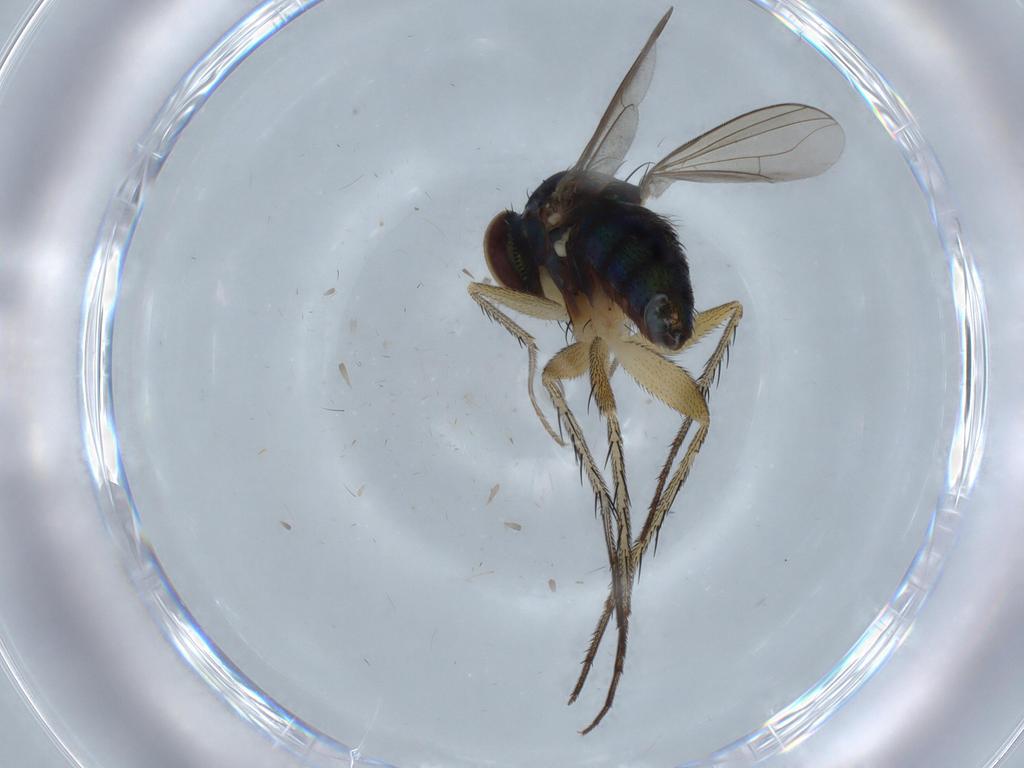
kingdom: Animalia
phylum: Arthropoda
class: Insecta
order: Diptera
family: Dolichopodidae
